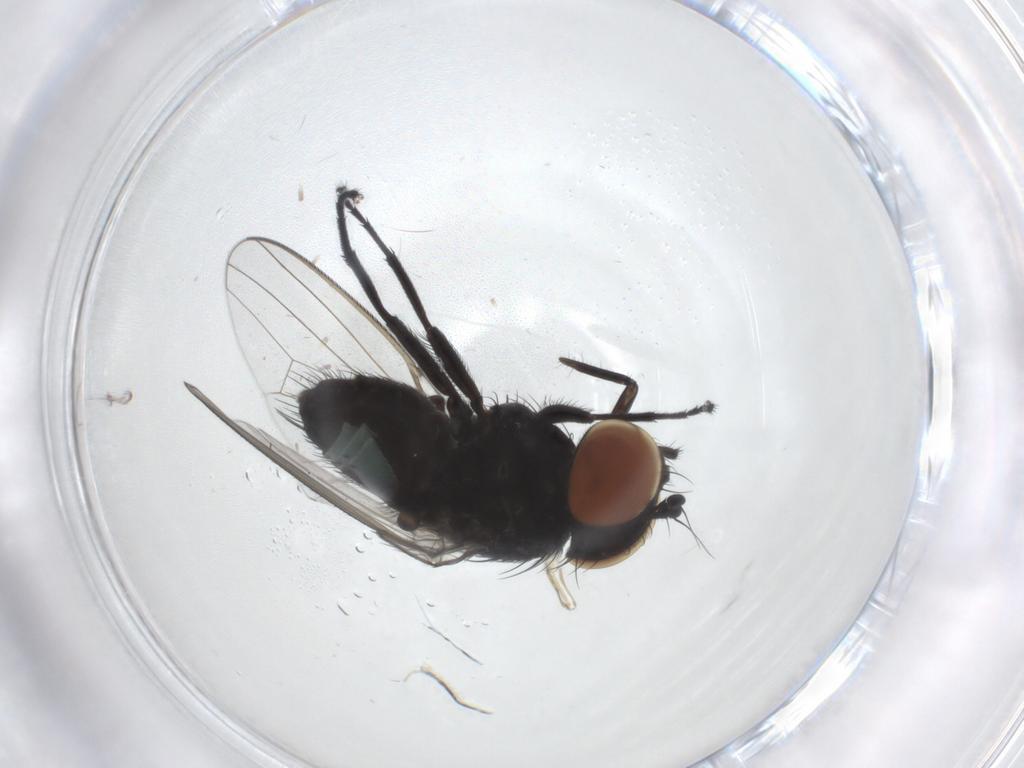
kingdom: Animalia
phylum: Arthropoda
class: Insecta
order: Diptera
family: Milichiidae
